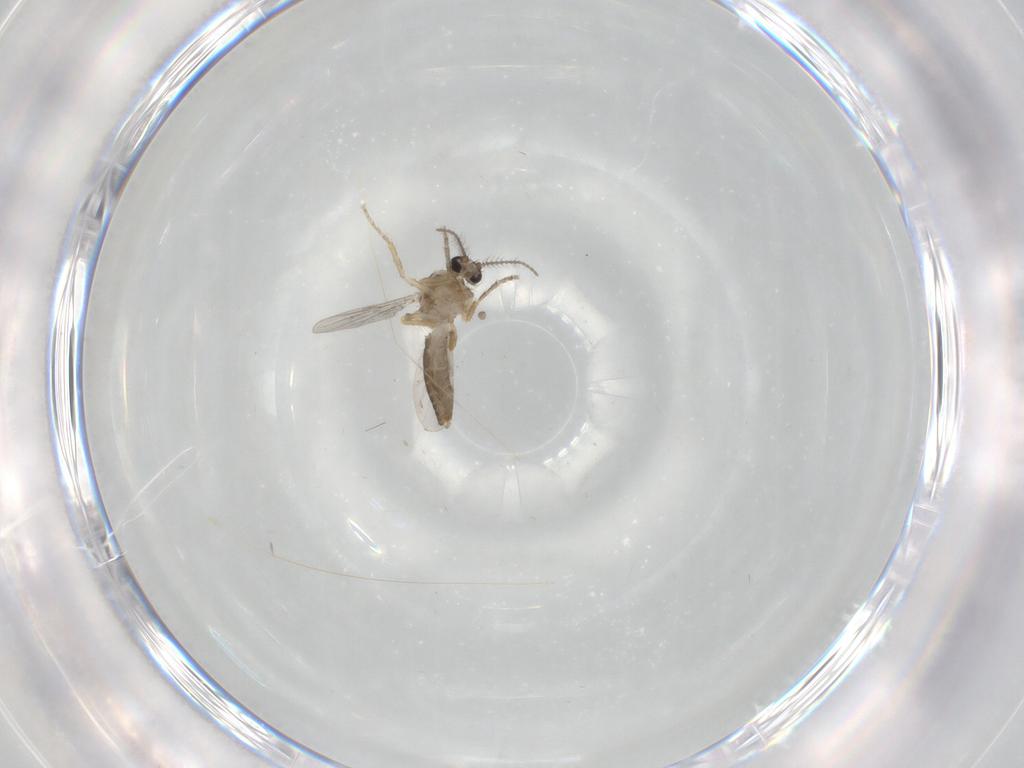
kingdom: Animalia
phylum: Arthropoda
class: Insecta
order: Diptera
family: Ceratopogonidae
